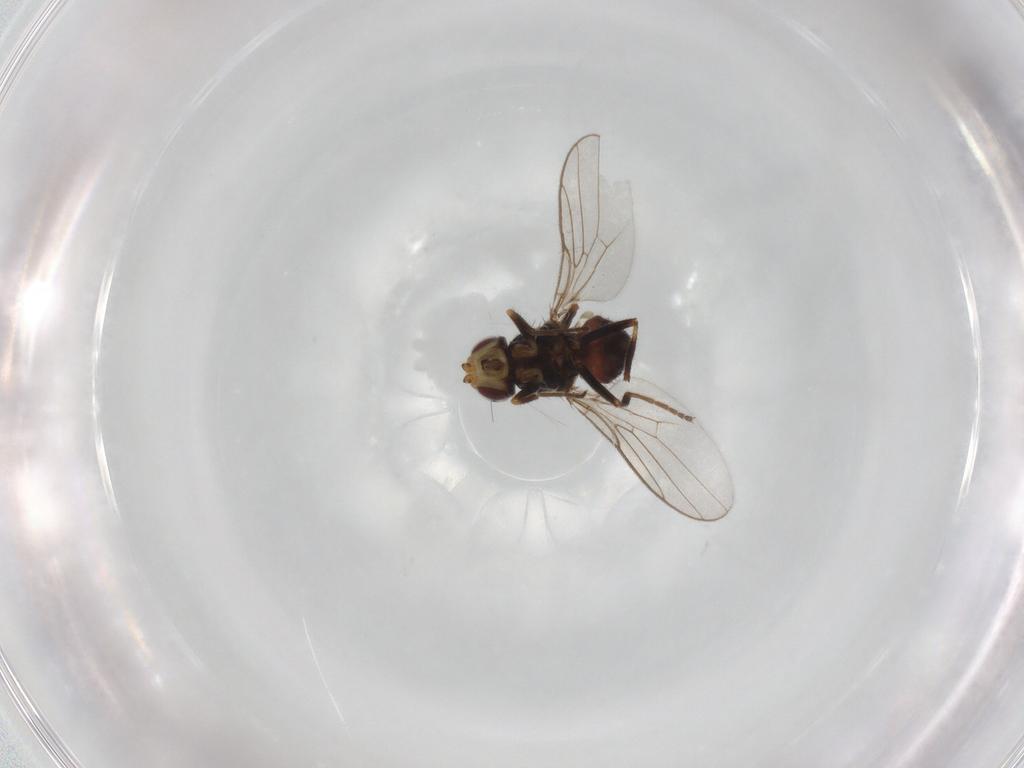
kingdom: Animalia
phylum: Arthropoda
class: Insecta
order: Diptera
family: Chloropidae
